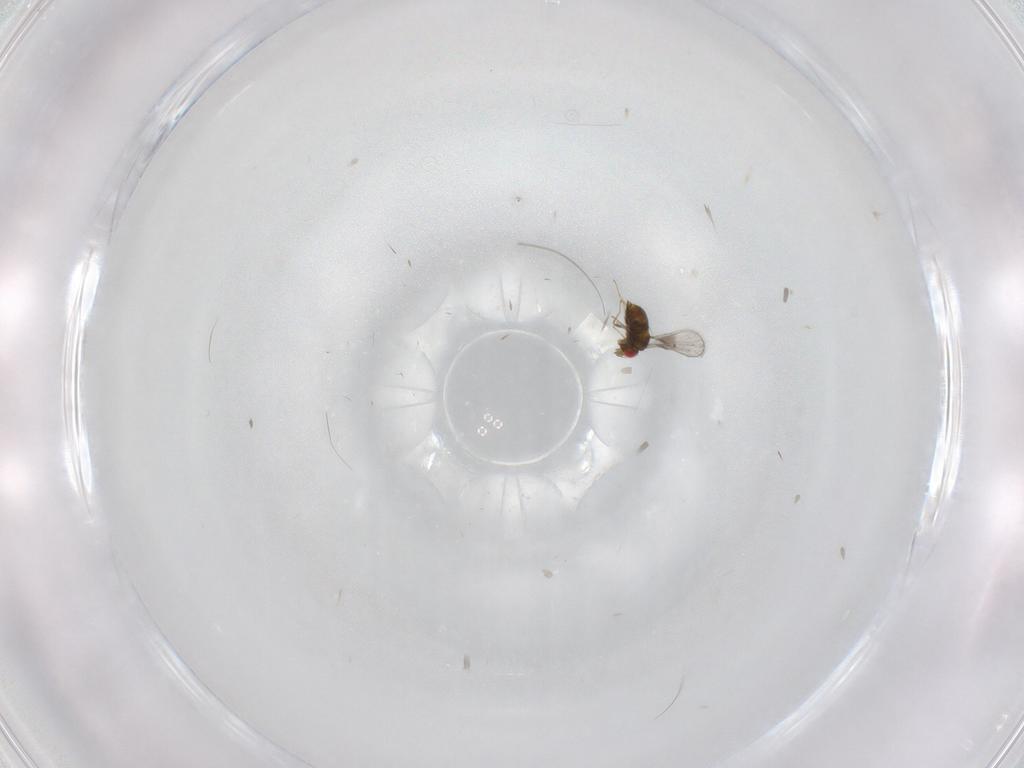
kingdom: Animalia
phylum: Arthropoda
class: Insecta
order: Hymenoptera
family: Trichogrammatidae
